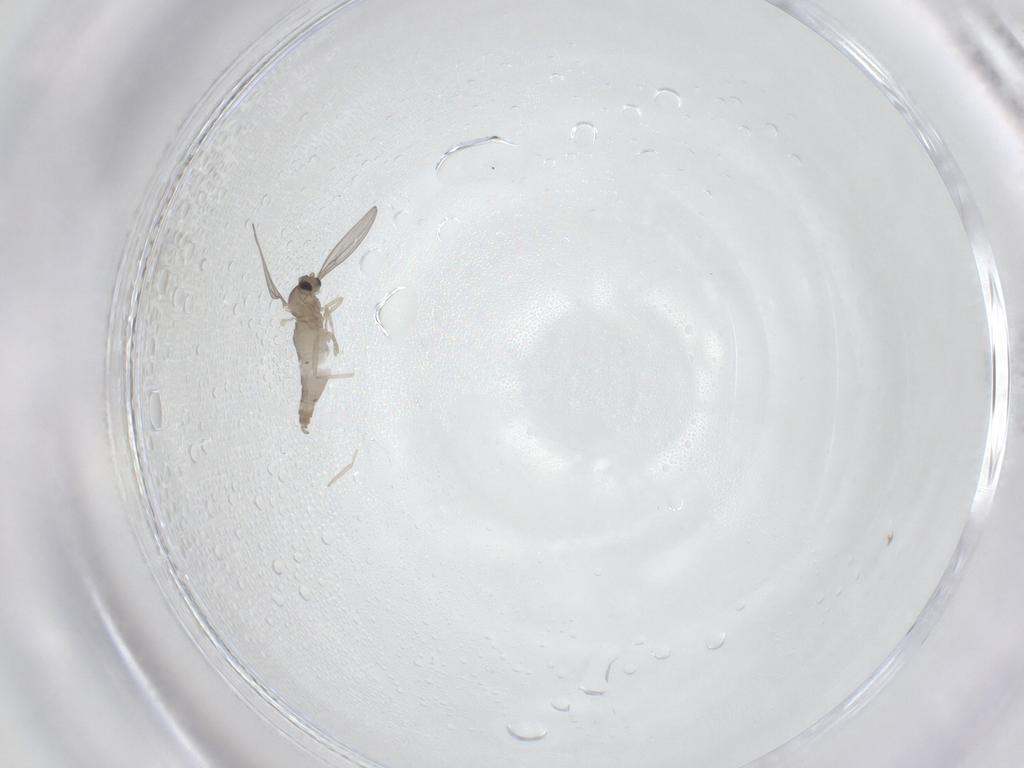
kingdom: Animalia
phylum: Arthropoda
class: Insecta
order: Diptera
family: Cecidomyiidae
